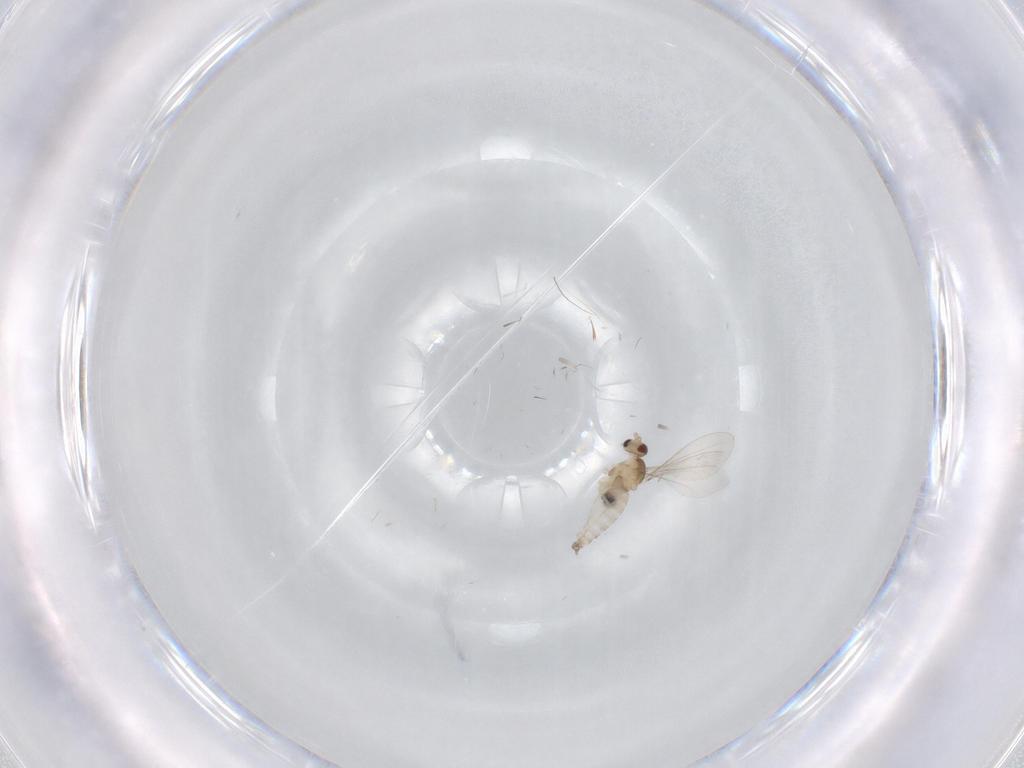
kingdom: Animalia
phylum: Arthropoda
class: Insecta
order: Diptera
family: Cecidomyiidae
